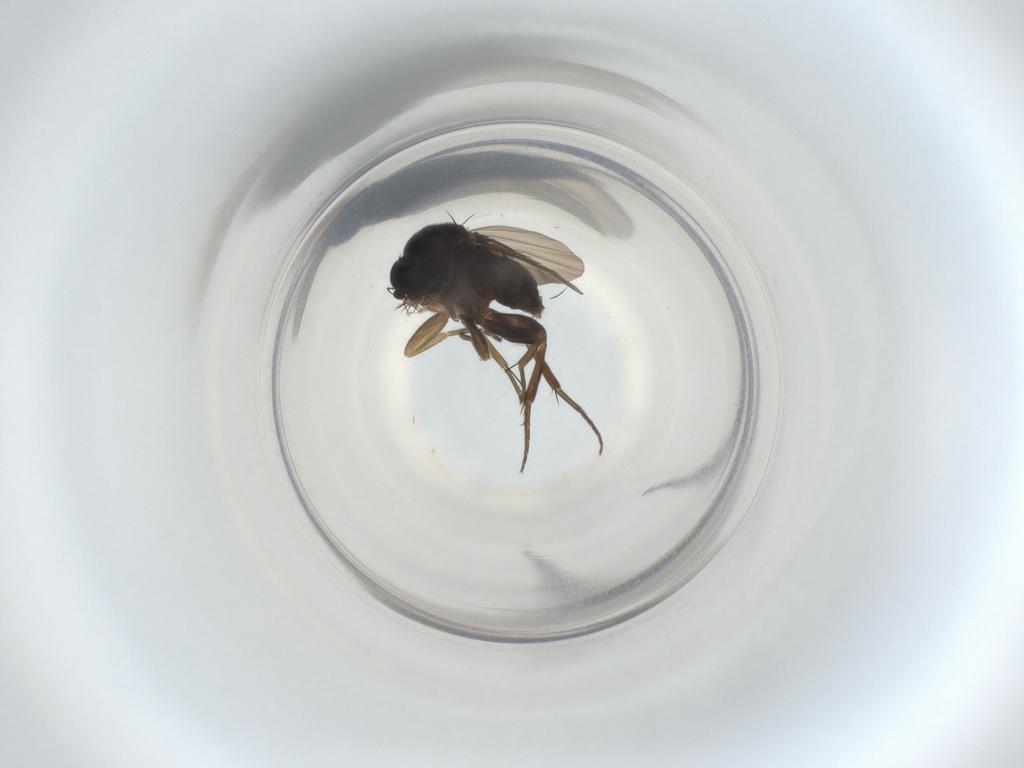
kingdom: Animalia
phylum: Arthropoda
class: Insecta
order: Diptera
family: Phoridae
